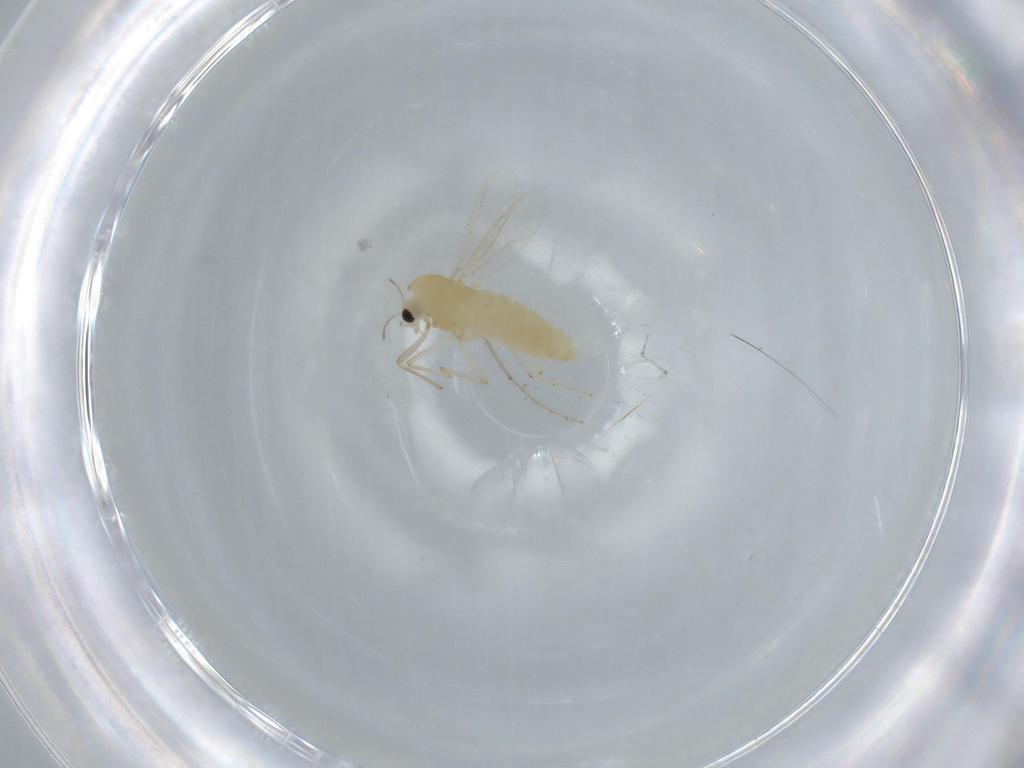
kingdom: Animalia
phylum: Arthropoda
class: Insecta
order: Diptera
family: Chironomidae
